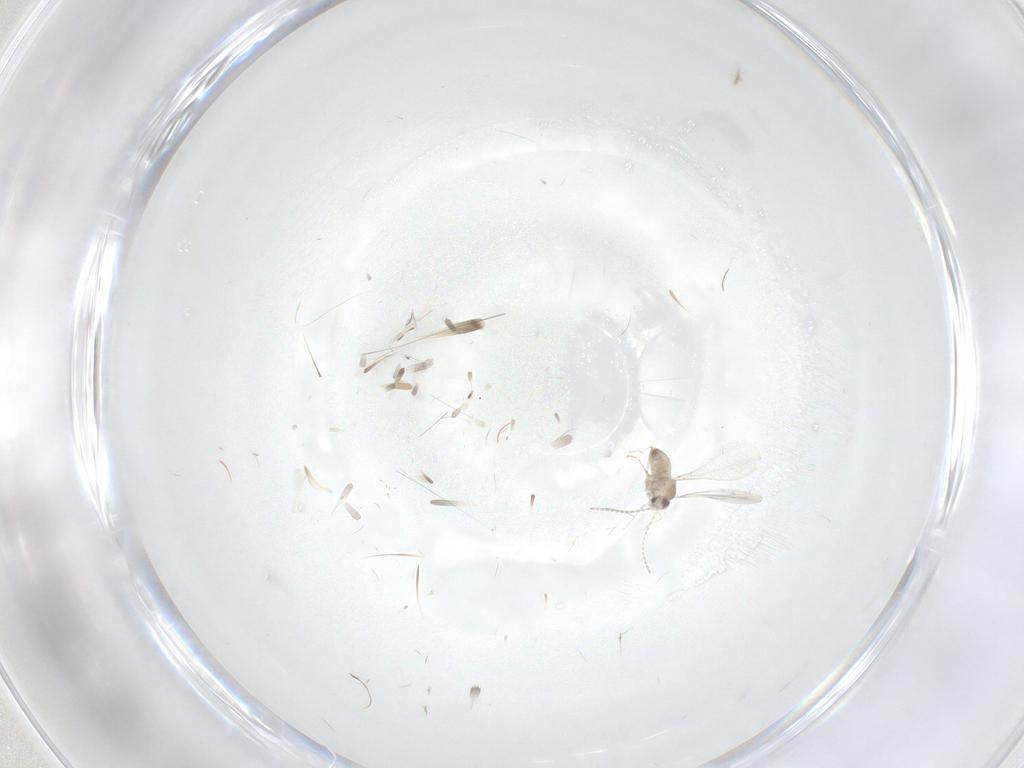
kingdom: Animalia
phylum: Arthropoda
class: Insecta
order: Diptera
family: Cecidomyiidae
